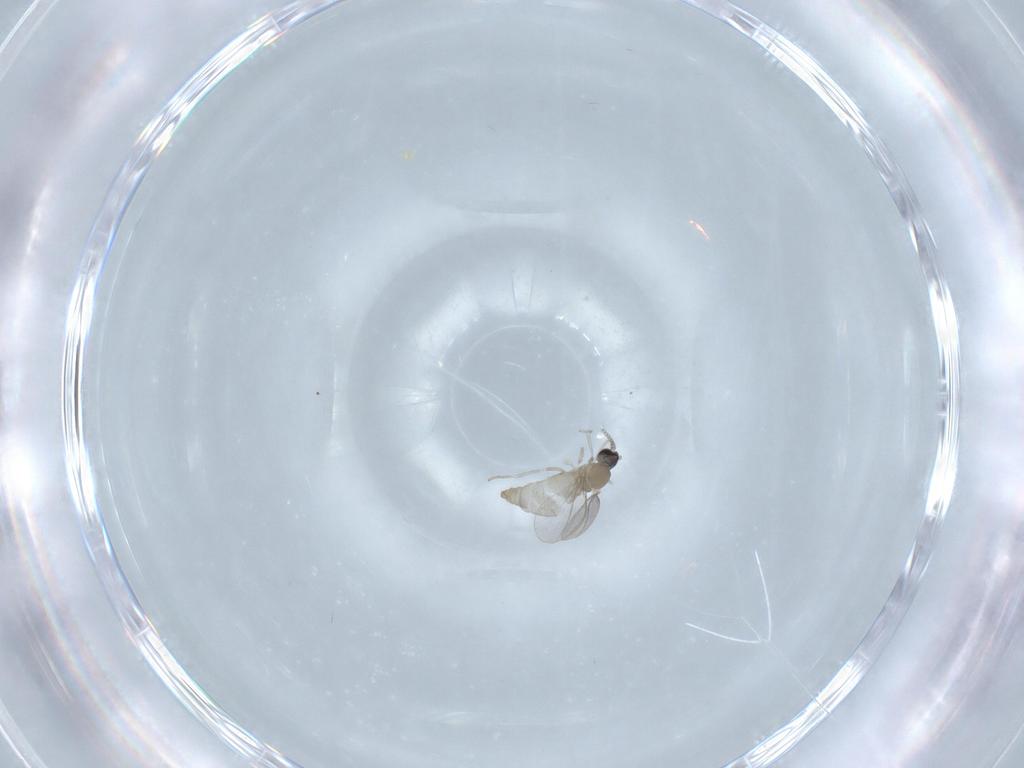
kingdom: Animalia
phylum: Arthropoda
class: Insecta
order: Diptera
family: Cecidomyiidae
